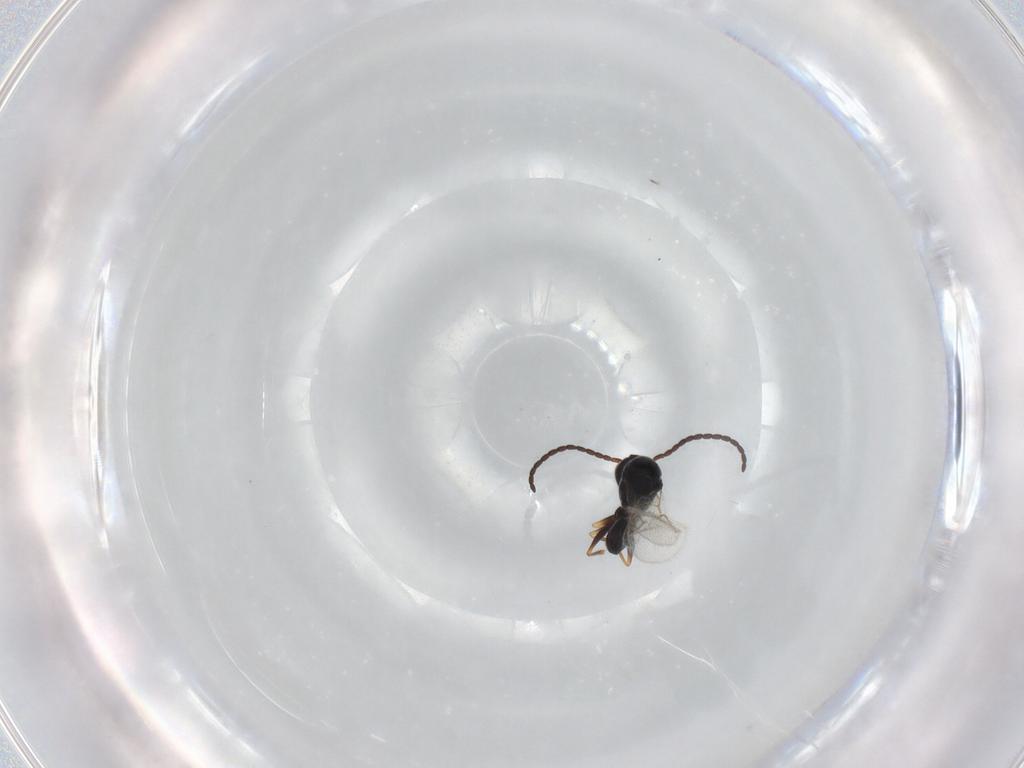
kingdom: Animalia
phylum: Arthropoda
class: Insecta
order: Hymenoptera
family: Figitidae
